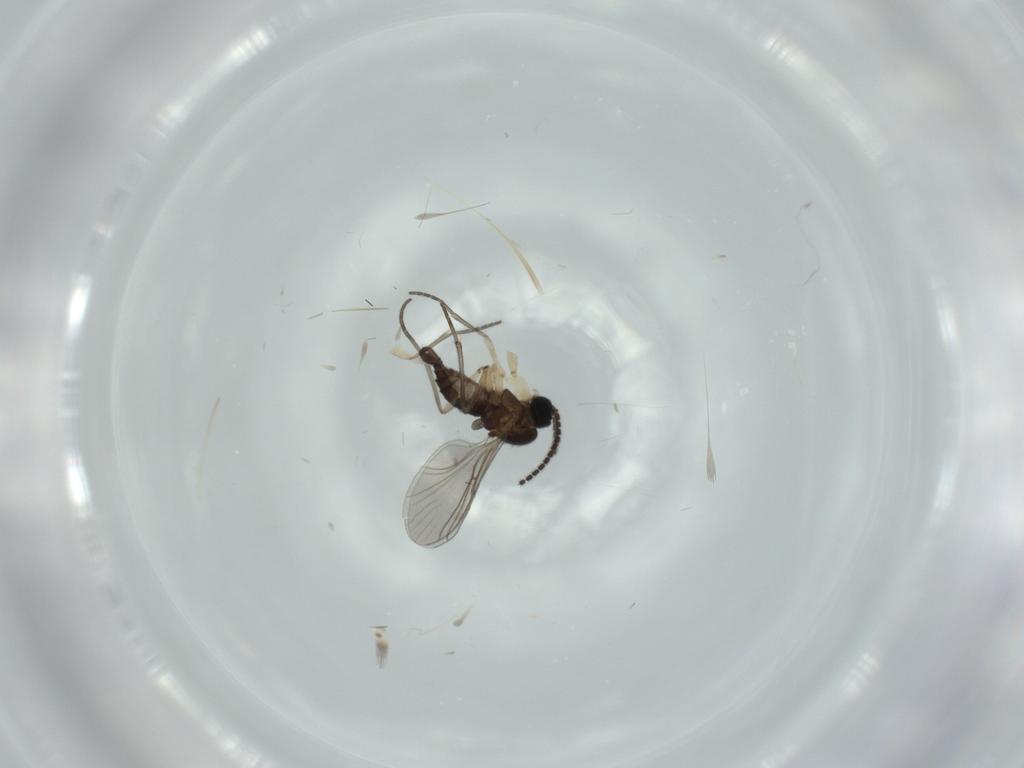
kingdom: Animalia
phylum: Arthropoda
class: Insecta
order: Diptera
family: Sciaridae
